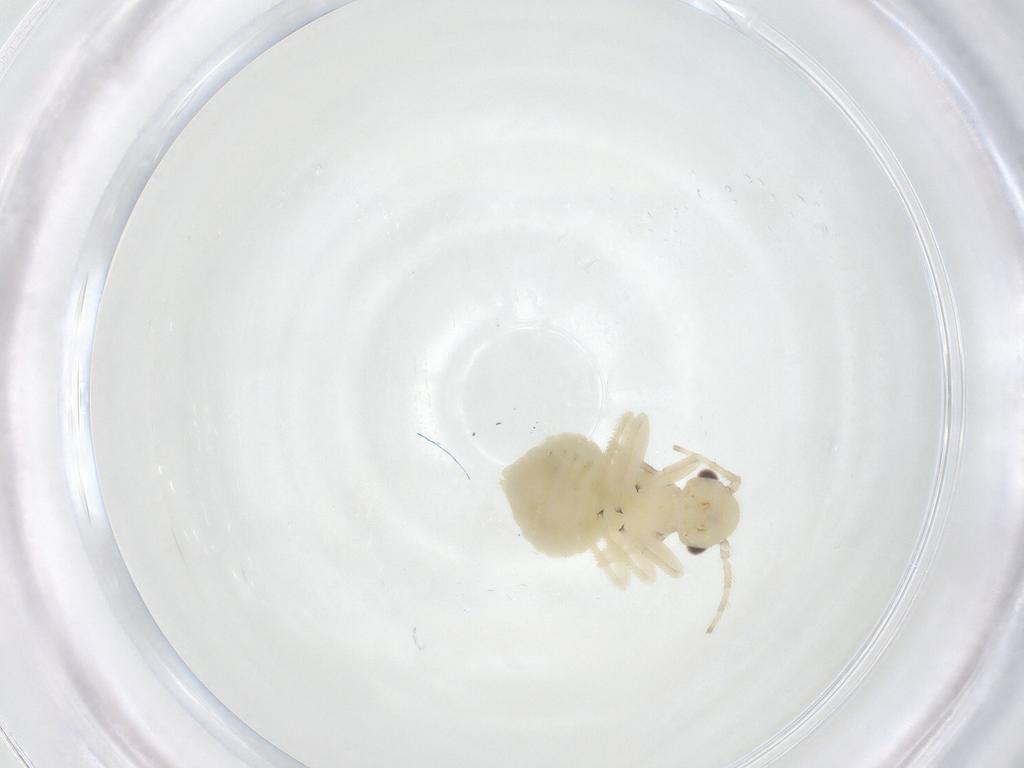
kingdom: Animalia
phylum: Arthropoda
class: Insecta
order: Psocodea
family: Amphipsocidae
